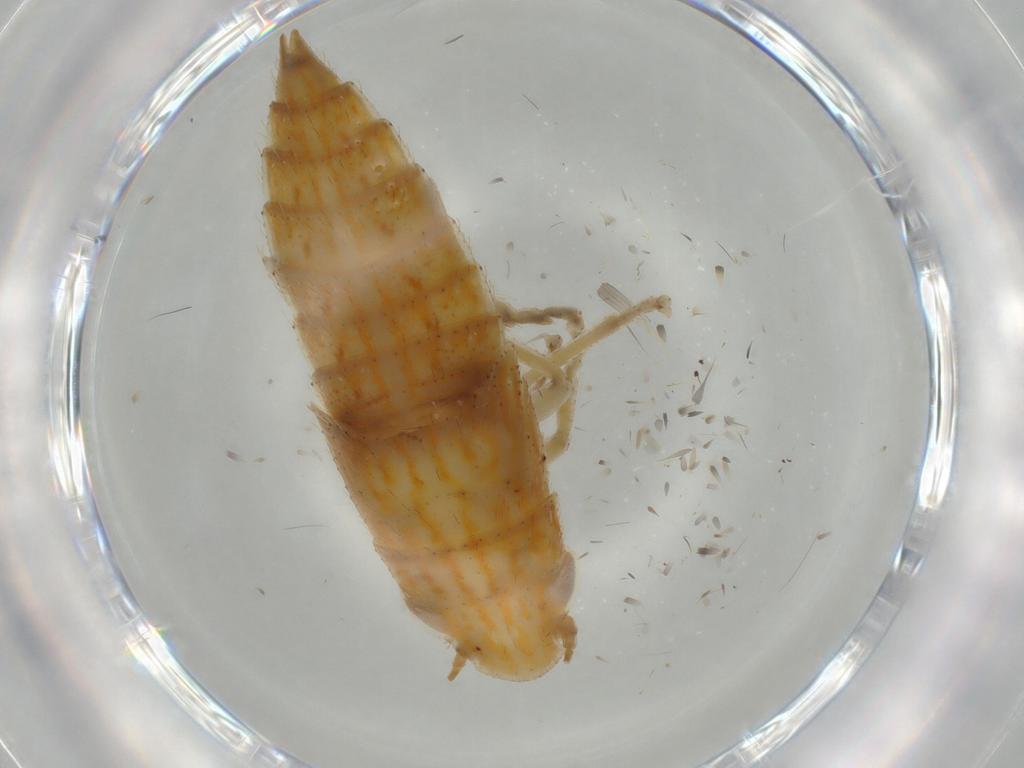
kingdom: Animalia
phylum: Arthropoda
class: Insecta
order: Hemiptera
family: Cicadellidae
